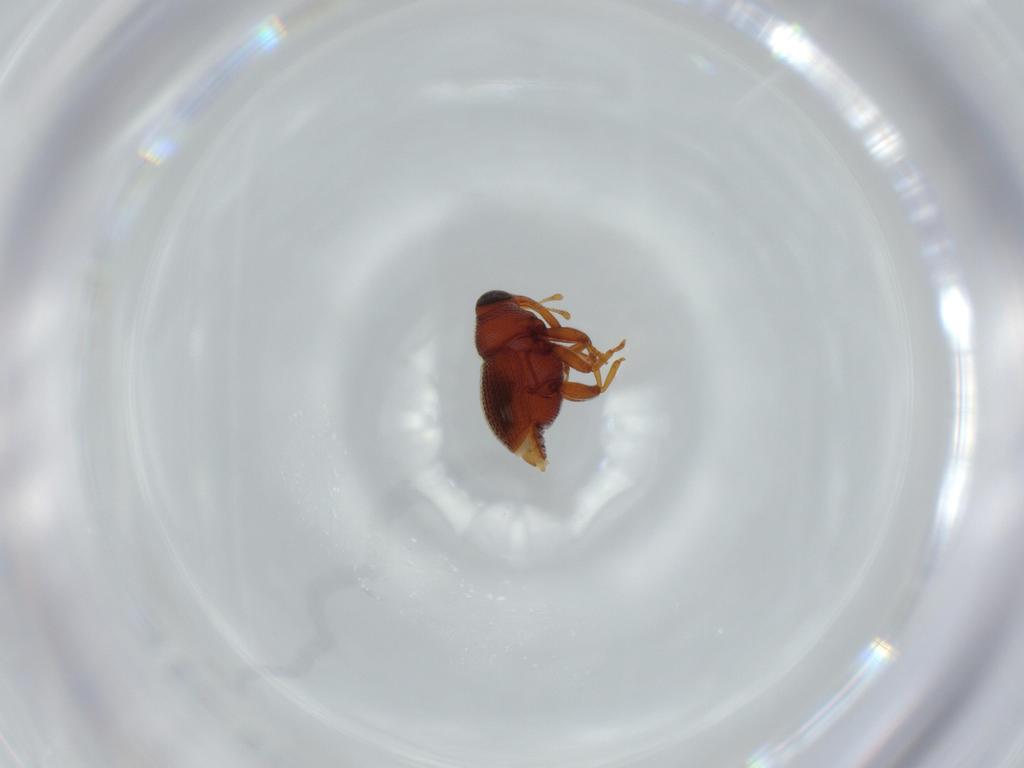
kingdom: Animalia
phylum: Arthropoda
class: Insecta
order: Coleoptera
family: Curculionidae
